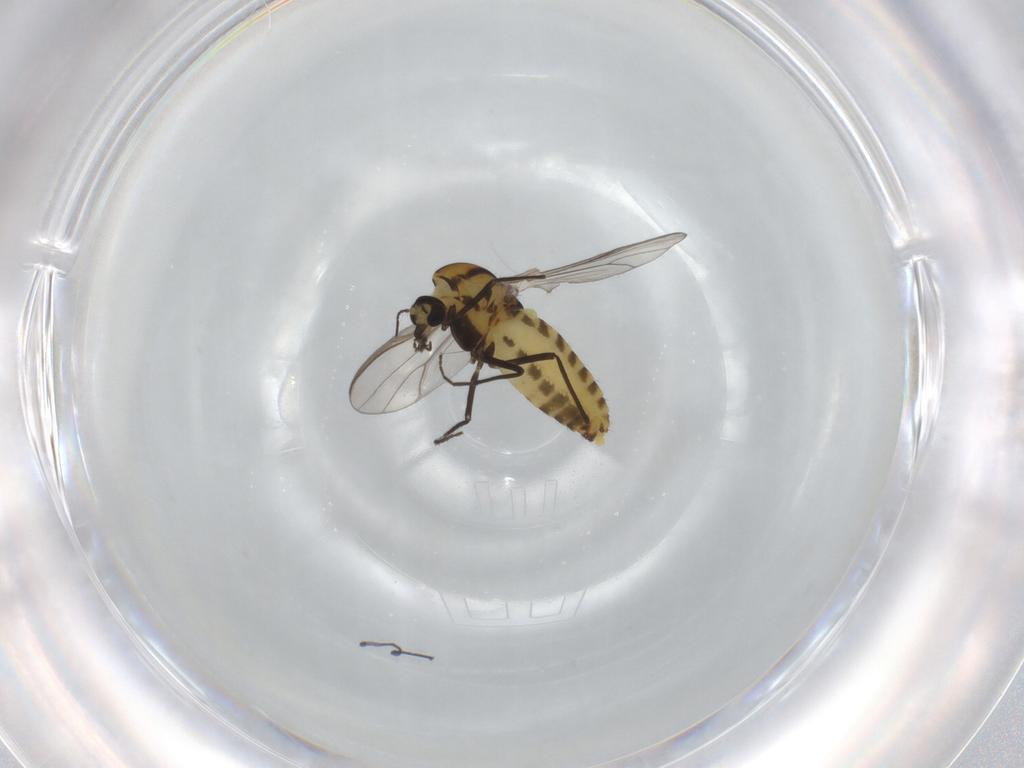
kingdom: Animalia
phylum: Arthropoda
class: Insecta
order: Diptera
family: Chironomidae
